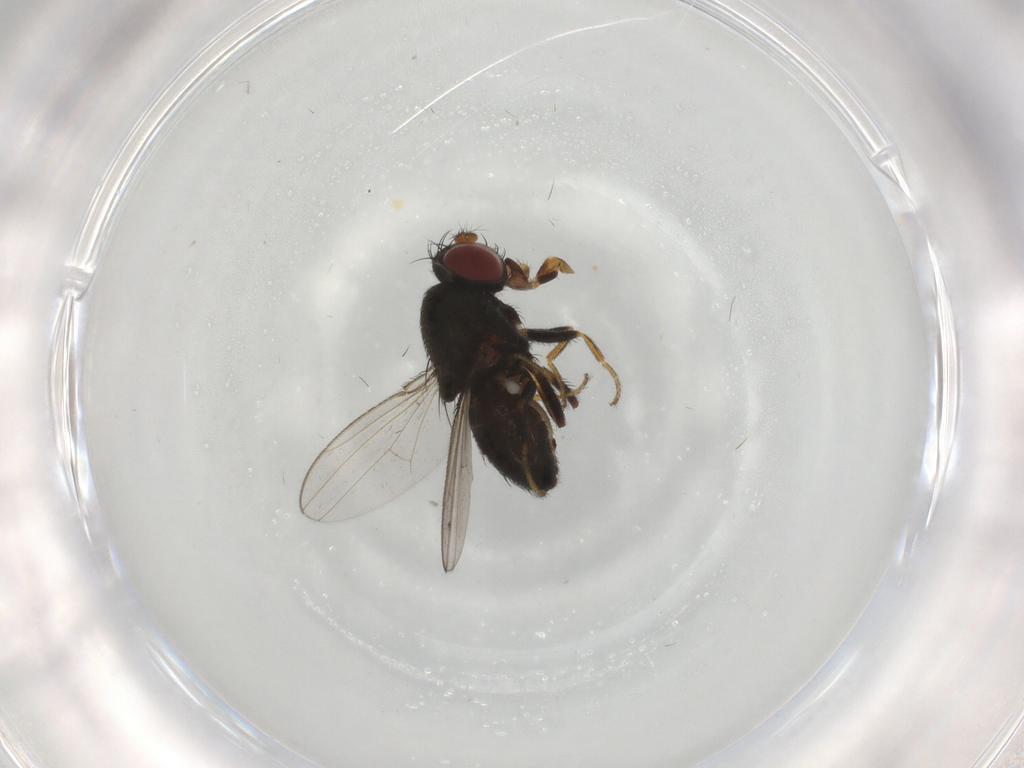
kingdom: Animalia
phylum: Arthropoda
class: Insecta
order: Diptera
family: Ephydridae
